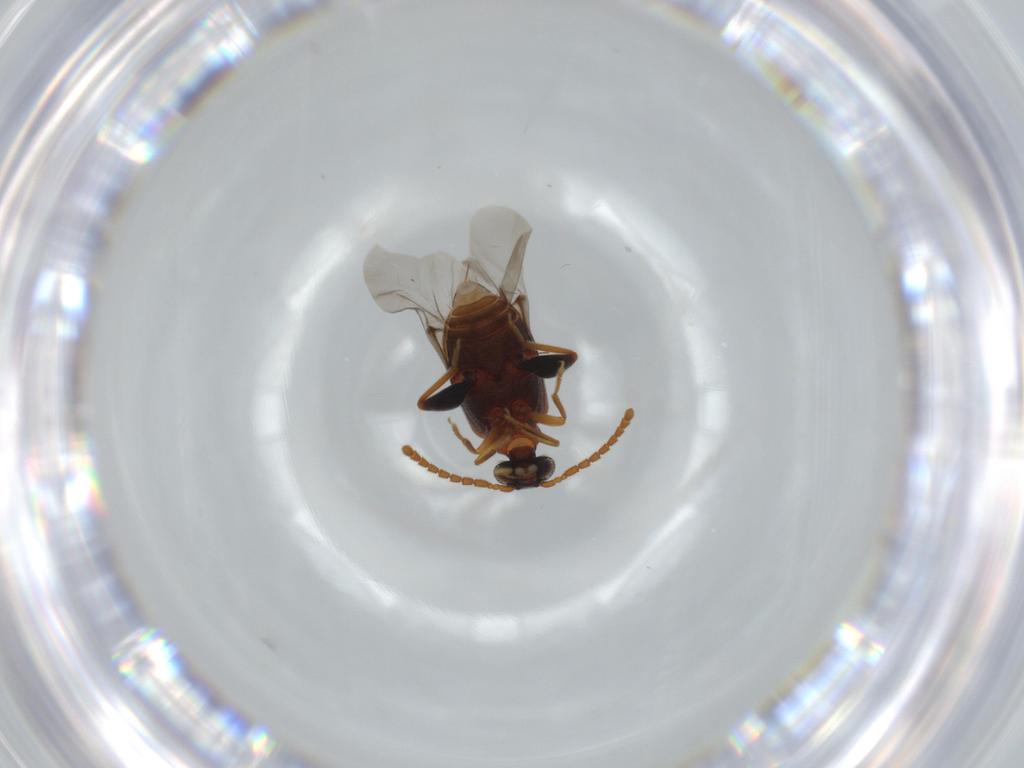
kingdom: Animalia
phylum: Arthropoda
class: Insecta
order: Coleoptera
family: Aderidae
